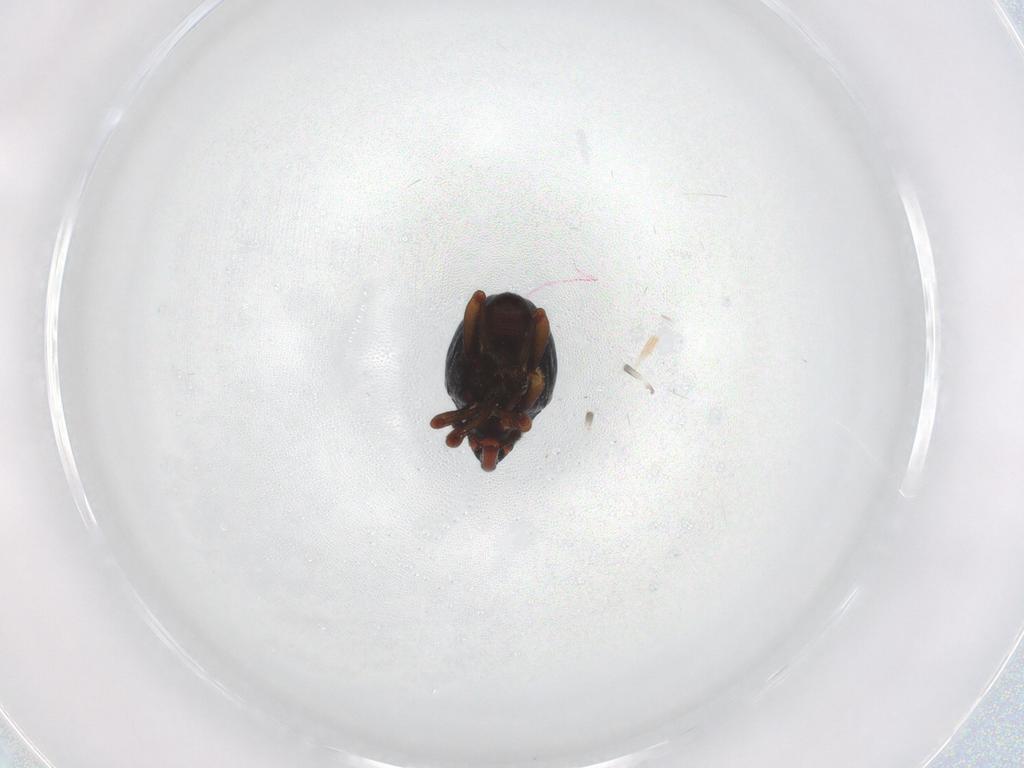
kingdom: Animalia
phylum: Arthropoda
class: Insecta
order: Coleoptera
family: Curculionidae
